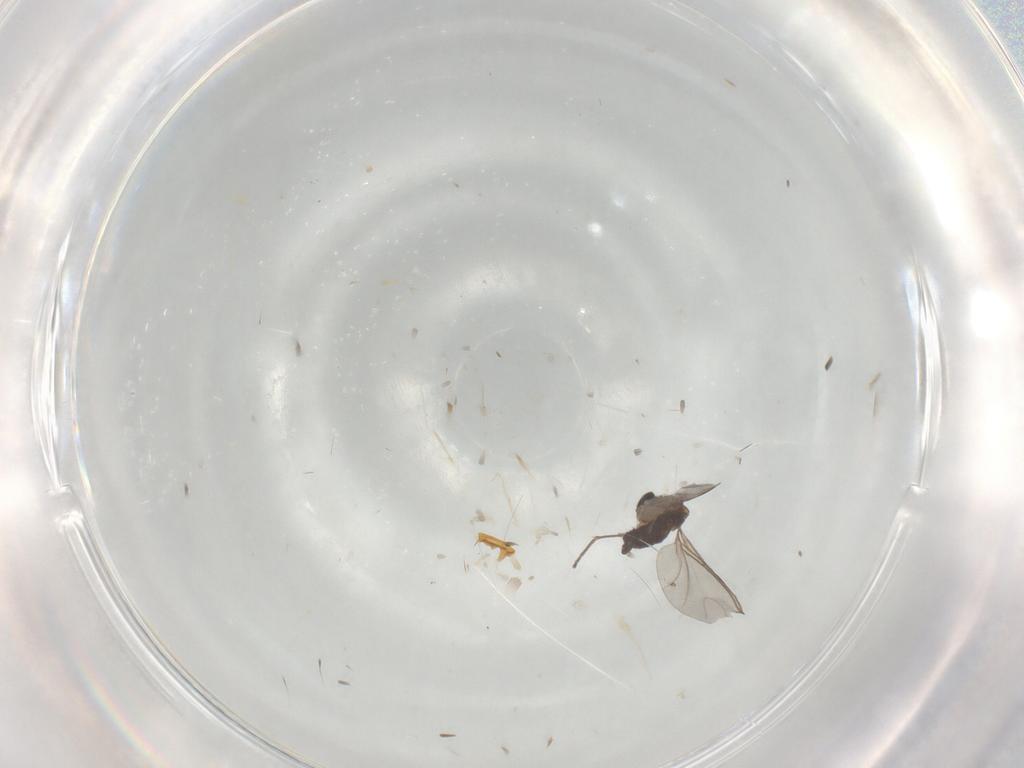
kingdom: Animalia
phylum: Arthropoda
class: Insecta
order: Diptera
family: Sciaridae
